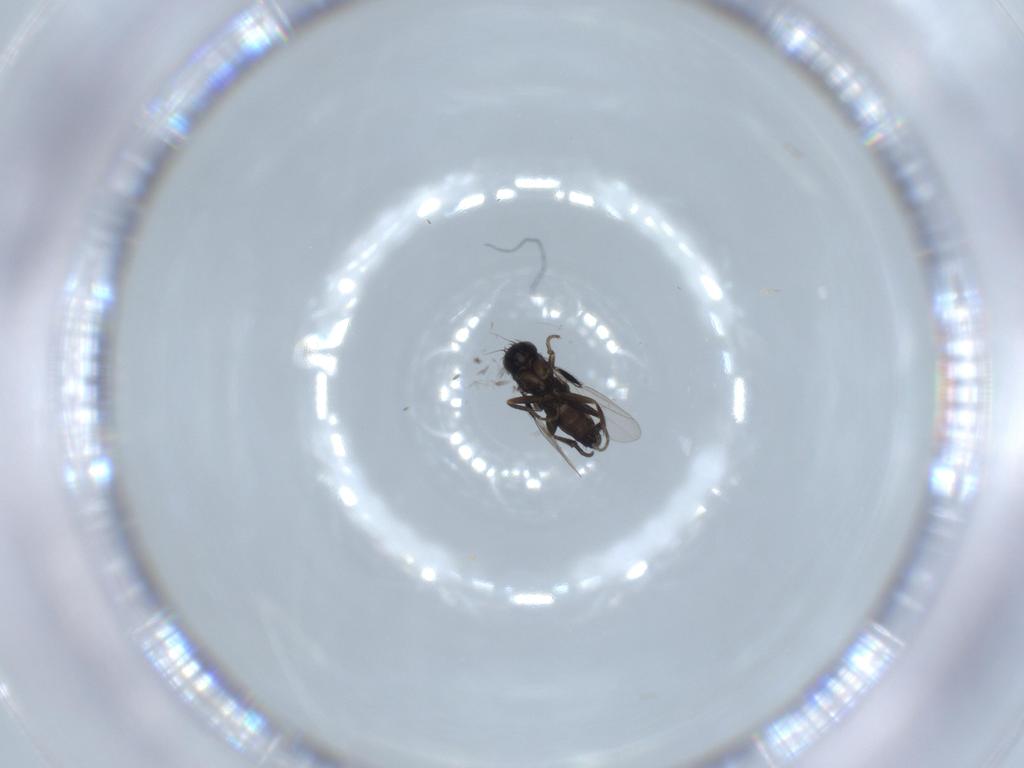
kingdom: Animalia
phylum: Arthropoda
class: Insecta
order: Diptera
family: Phoridae
